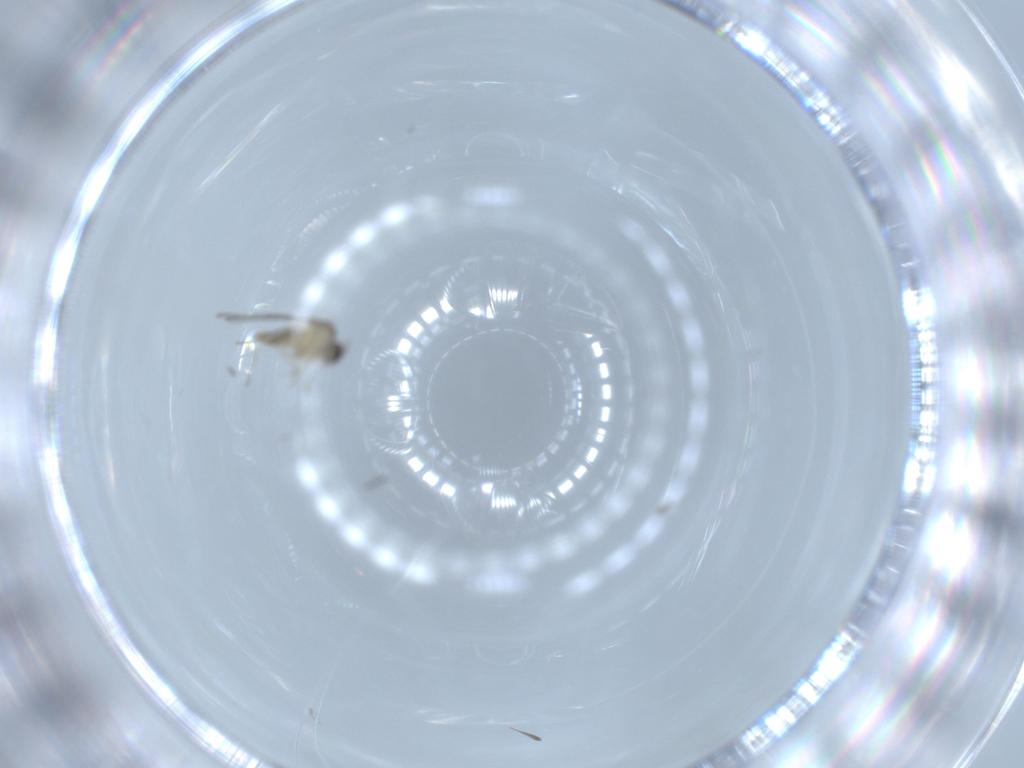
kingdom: Animalia
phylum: Arthropoda
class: Insecta
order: Diptera
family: Cecidomyiidae
